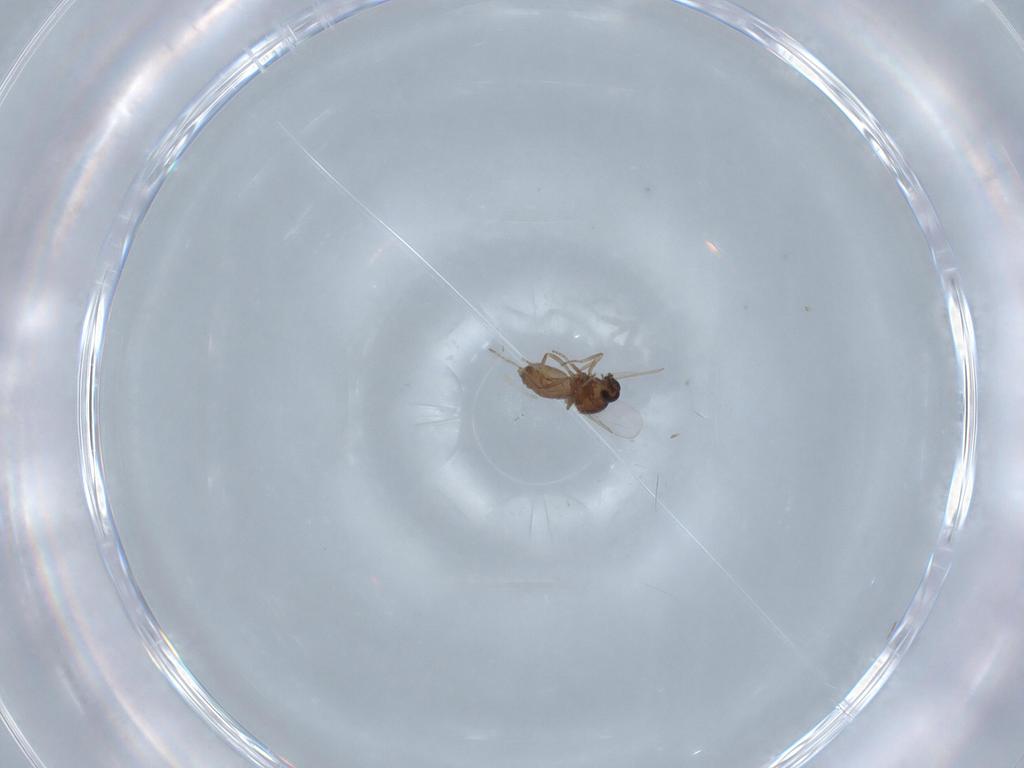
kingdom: Animalia
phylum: Arthropoda
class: Insecta
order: Diptera
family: Ceratopogonidae
